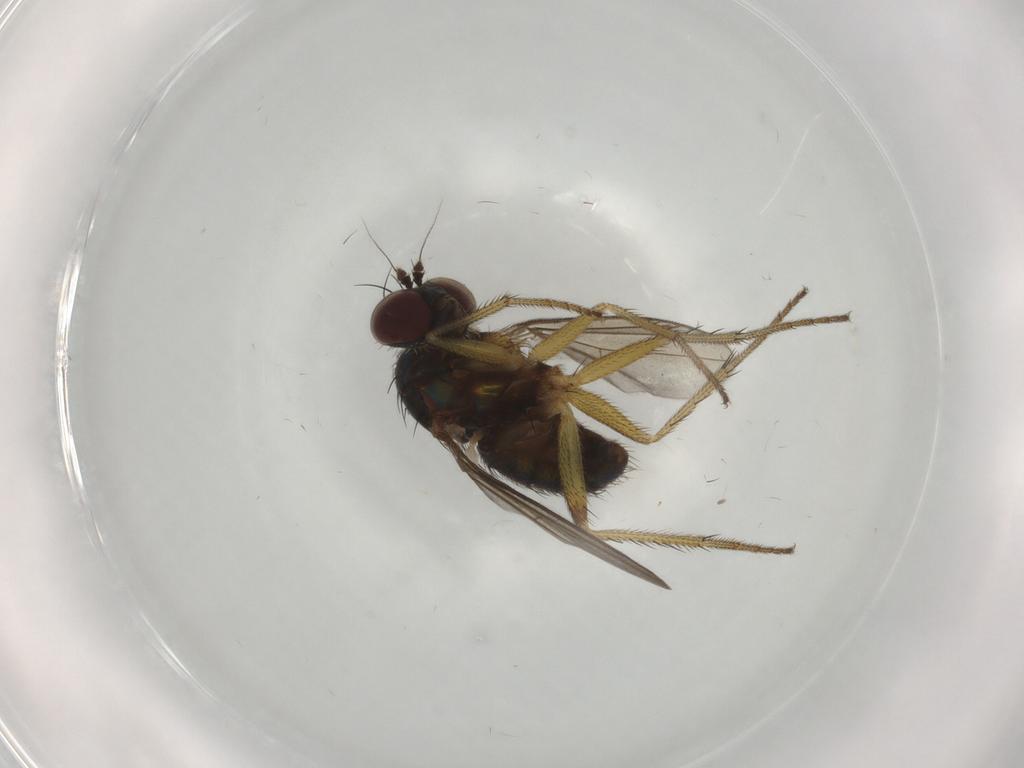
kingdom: Animalia
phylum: Arthropoda
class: Insecta
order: Diptera
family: Dolichopodidae
